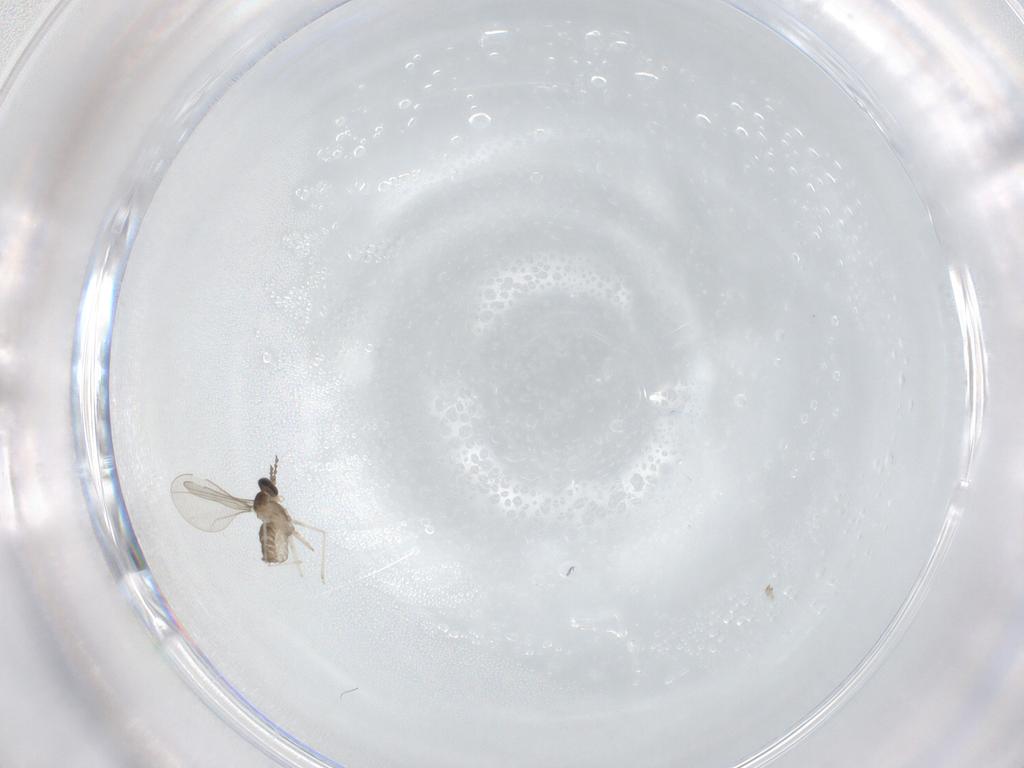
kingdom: Animalia
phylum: Arthropoda
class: Insecta
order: Diptera
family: Cecidomyiidae
